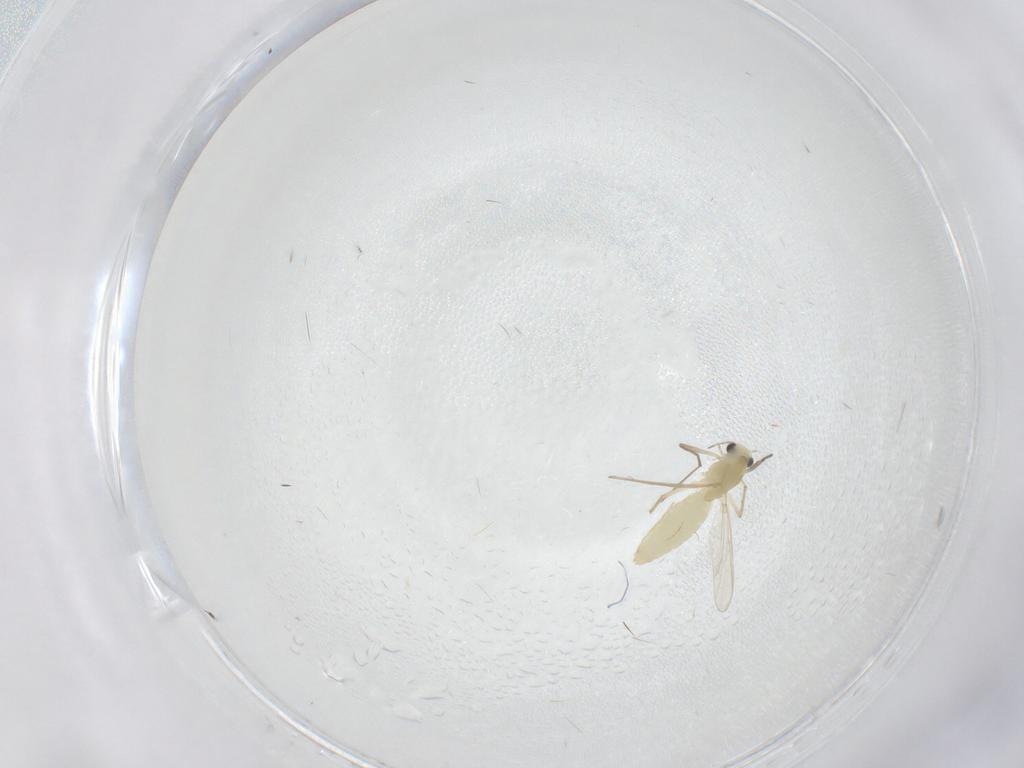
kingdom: Animalia
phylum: Arthropoda
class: Insecta
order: Diptera
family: Chironomidae
